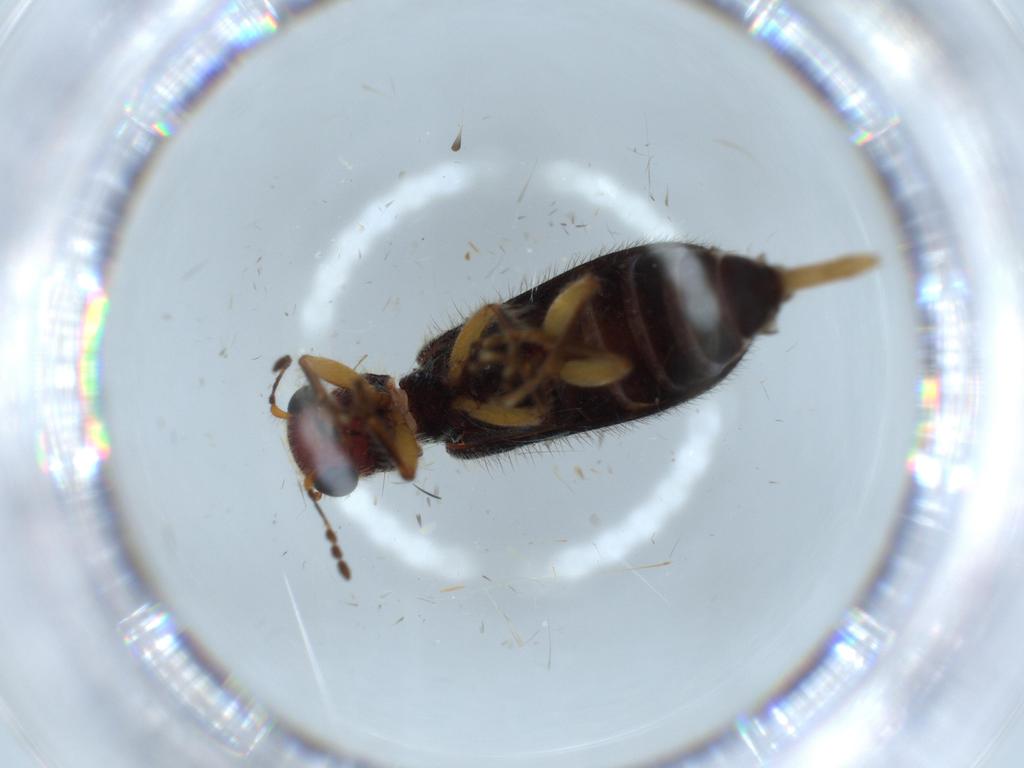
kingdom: Animalia
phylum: Arthropoda
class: Insecta
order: Coleoptera
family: Cleridae
